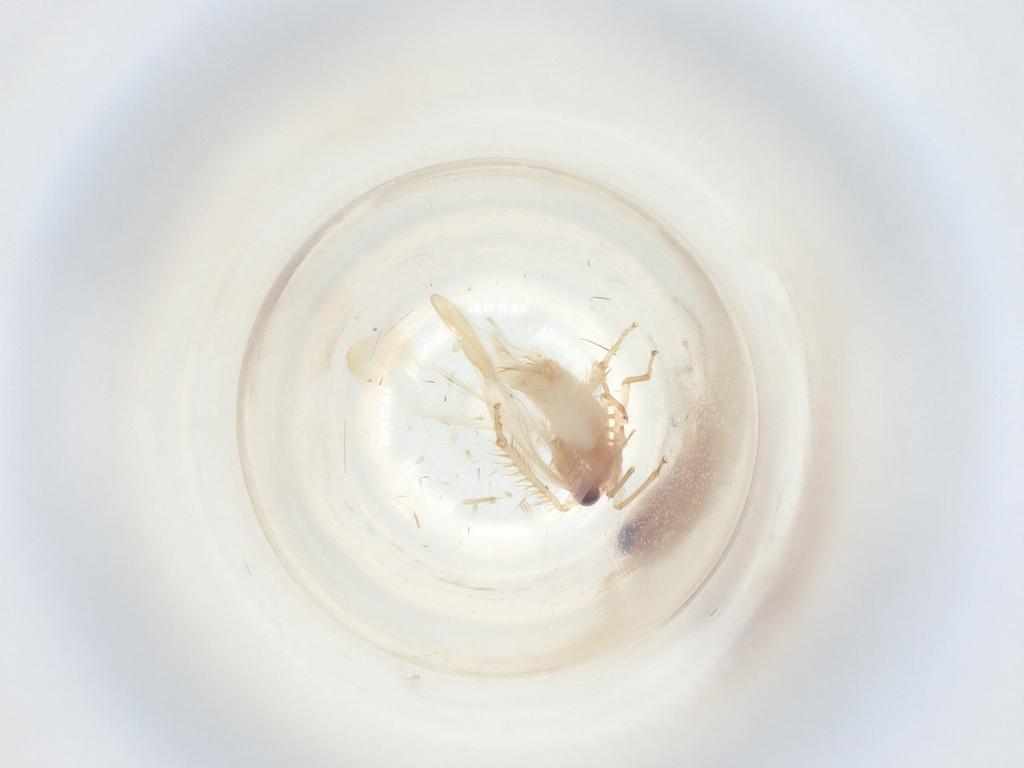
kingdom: Animalia
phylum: Arthropoda
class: Insecta
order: Hemiptera
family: Cicadellidae
